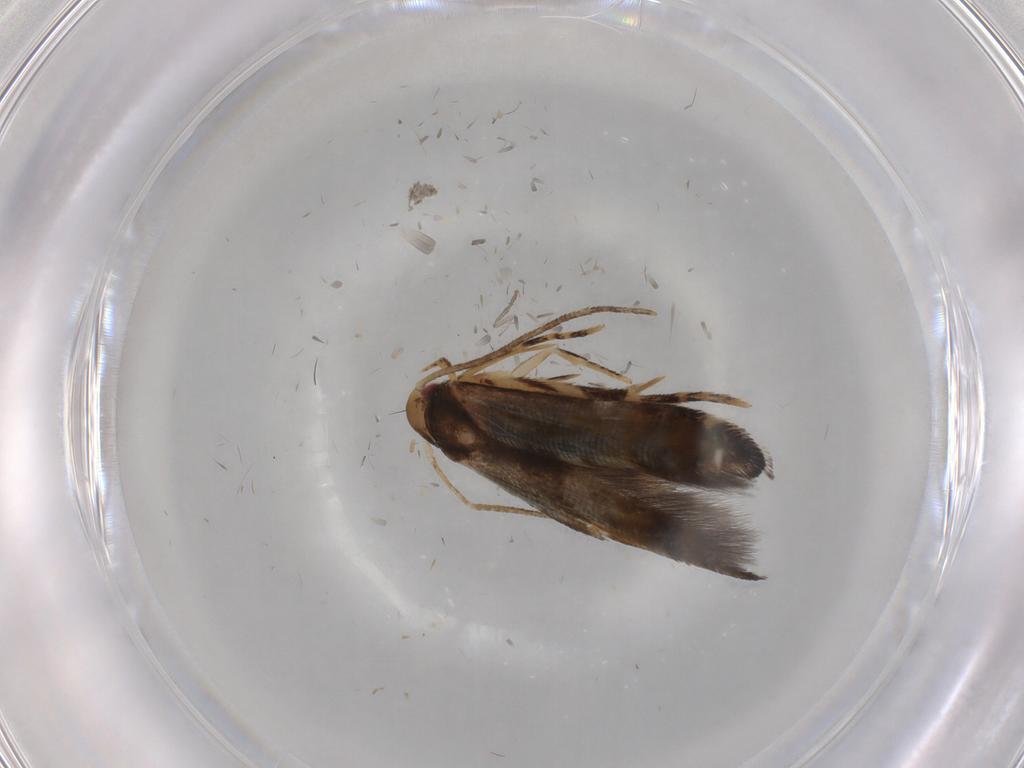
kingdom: Animalia
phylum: Arthropoda
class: Insecta
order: Lepidoptera
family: Momphidae
